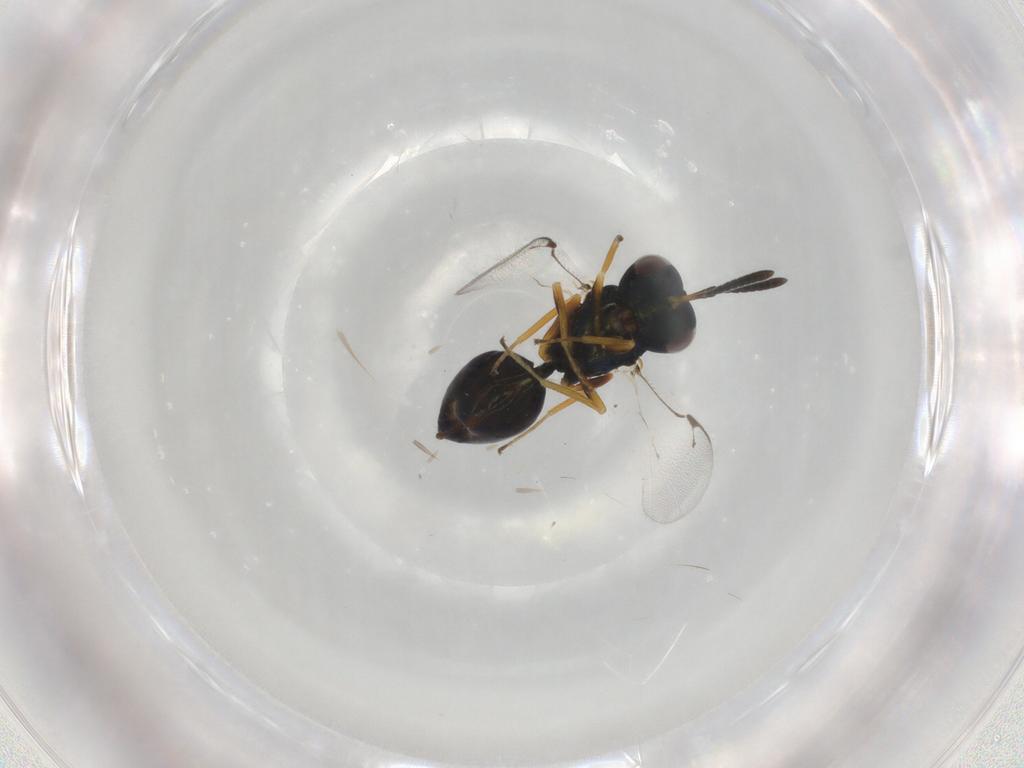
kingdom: Animalia
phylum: Arthropoda
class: Insecta
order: Hymenoptera
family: Pteromalidae
